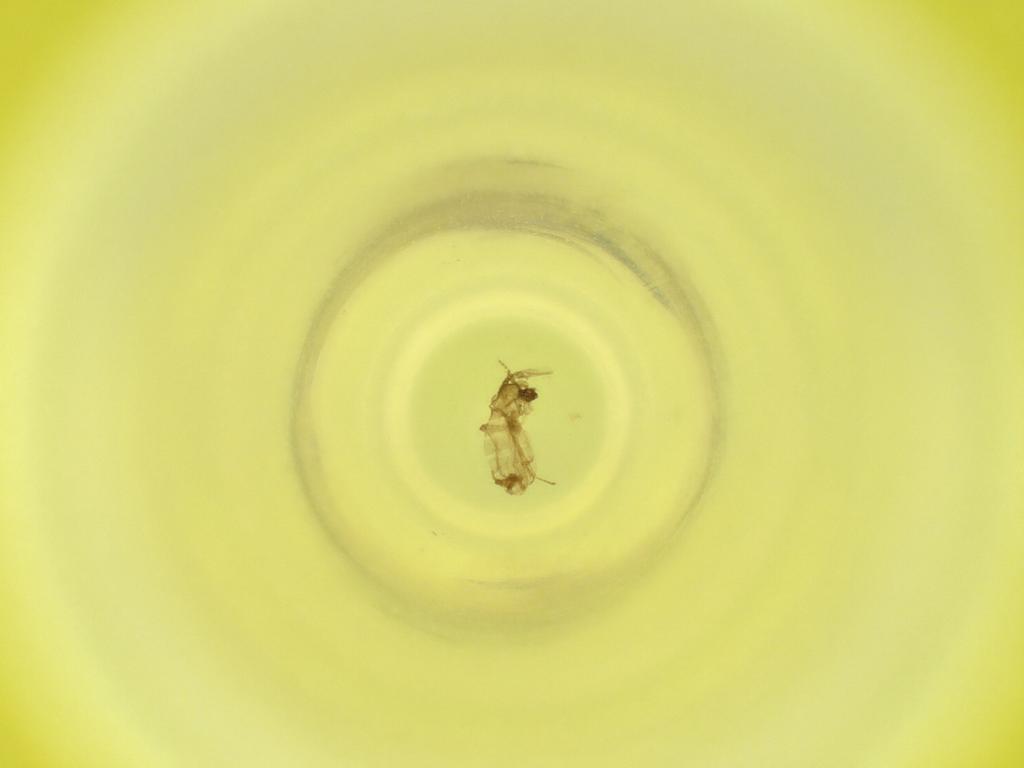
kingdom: Animalia
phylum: Arthropoda
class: Insecta
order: Diptera
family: Cecidomyiidae
